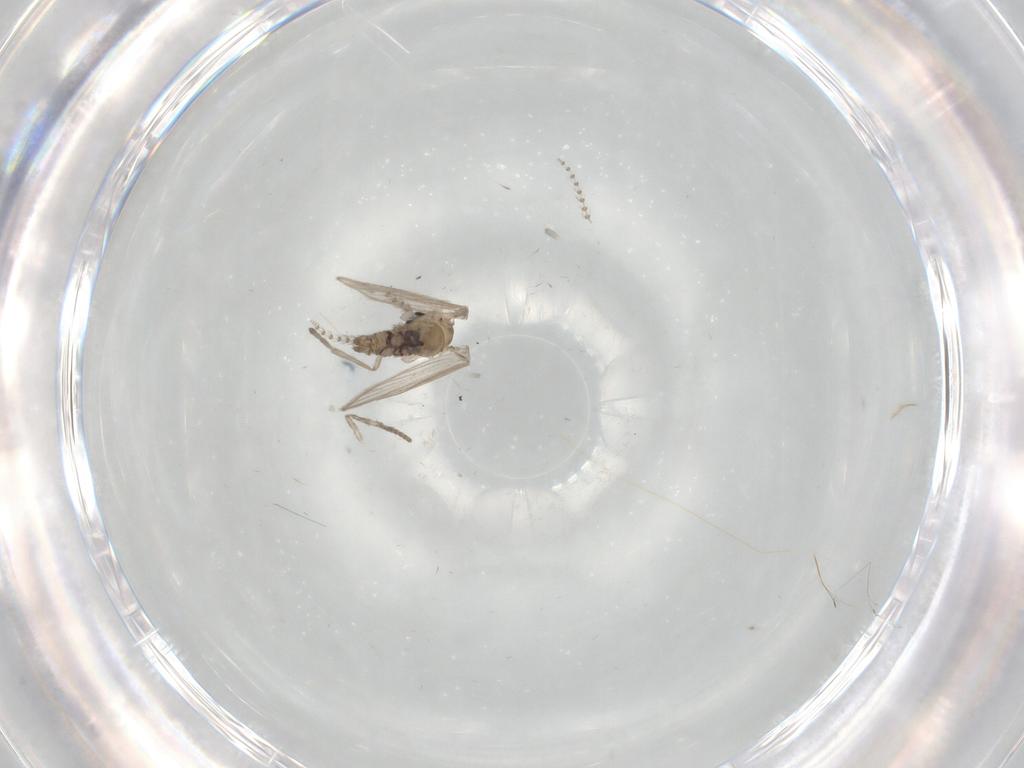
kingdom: Animalia
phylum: Arthropoda
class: Insecta
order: Diptera
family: Psychodidae
